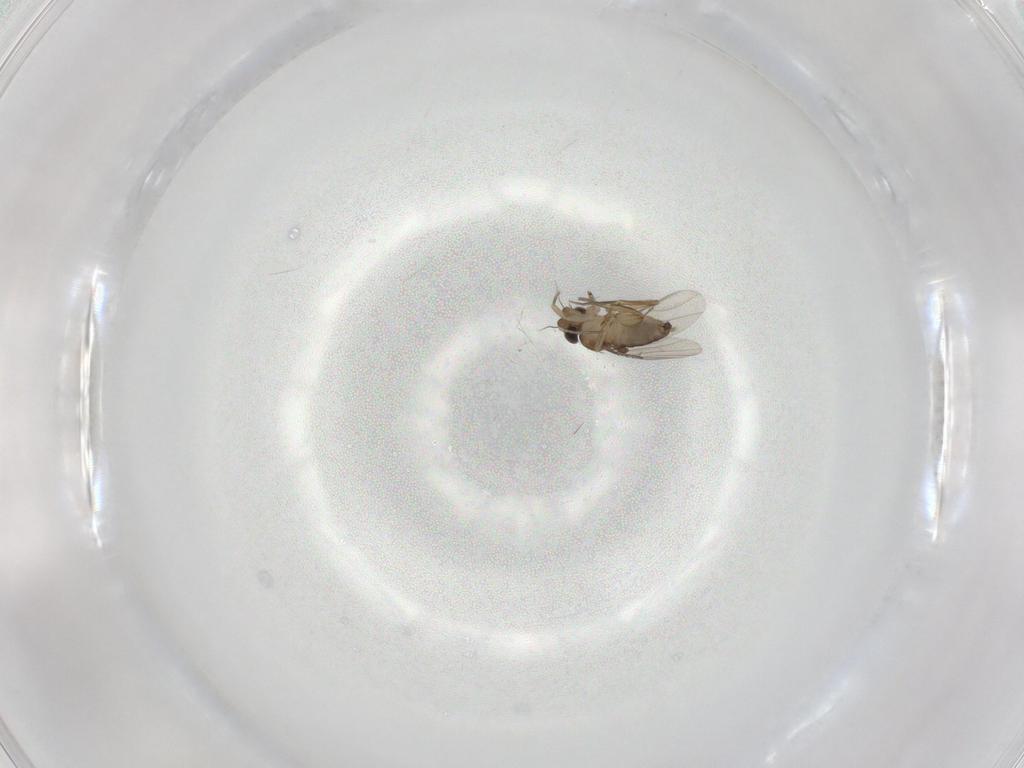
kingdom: Animalia
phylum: Arthropoda
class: Insecta
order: Diptera
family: Phoridae
